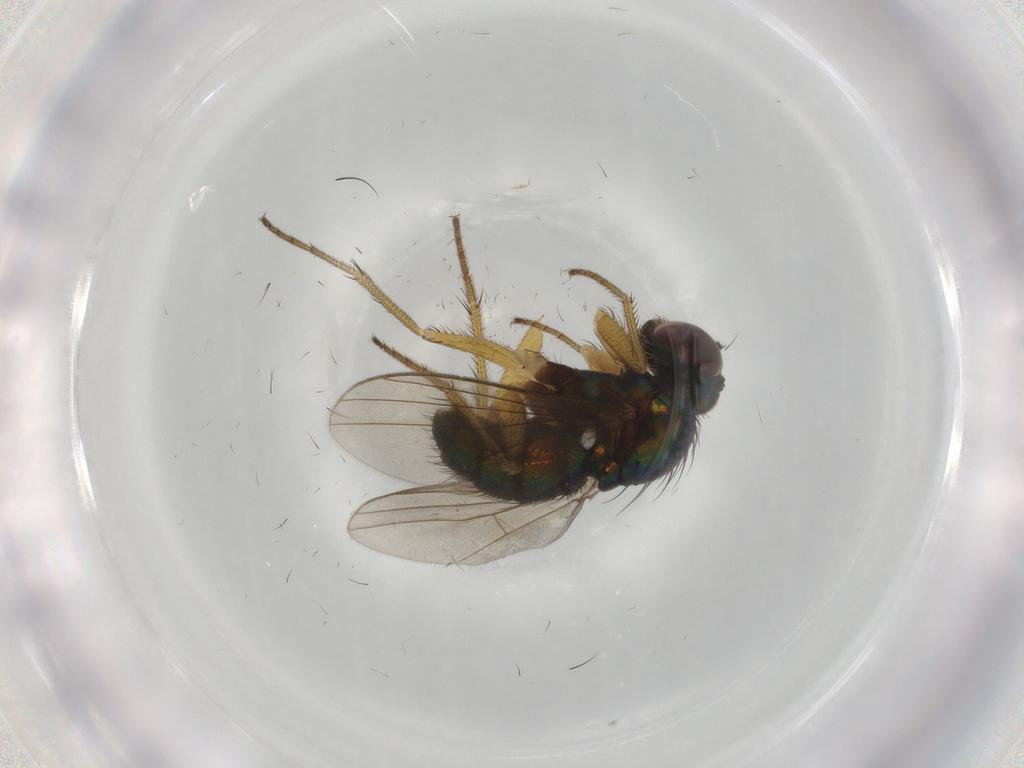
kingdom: Animalia
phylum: Arthropoda
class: Insecta
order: Diptera
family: Dolichopodidae
